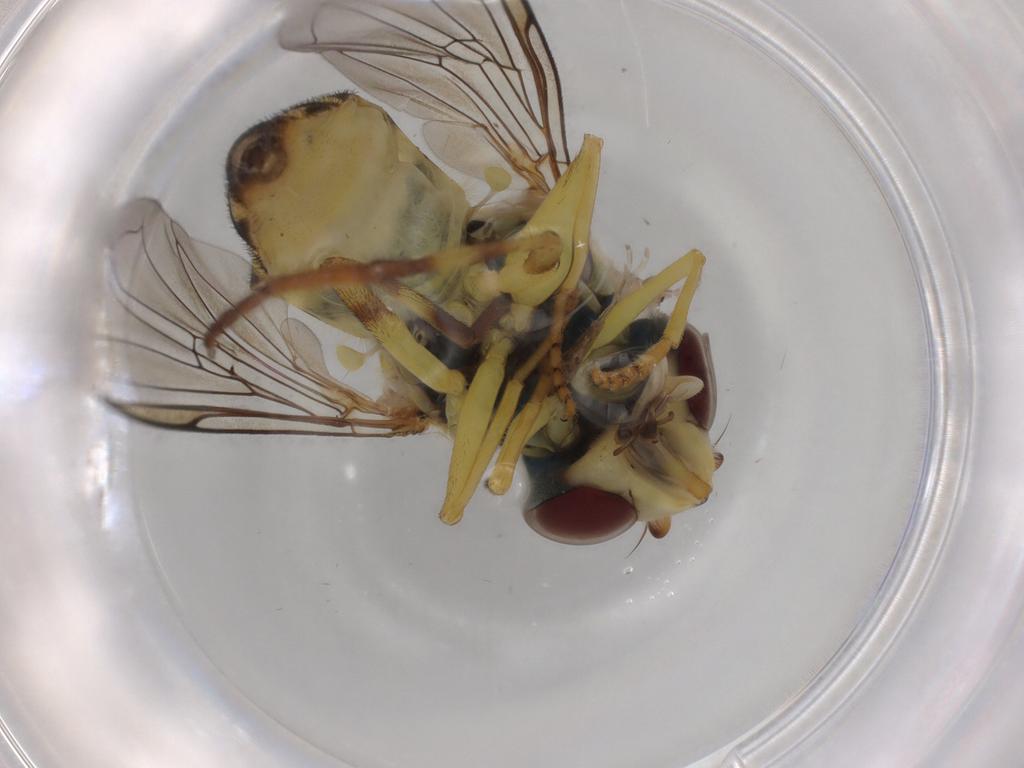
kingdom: Animalia
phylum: Arthropoda
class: Insecta
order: Diptera
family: Syrphidae
